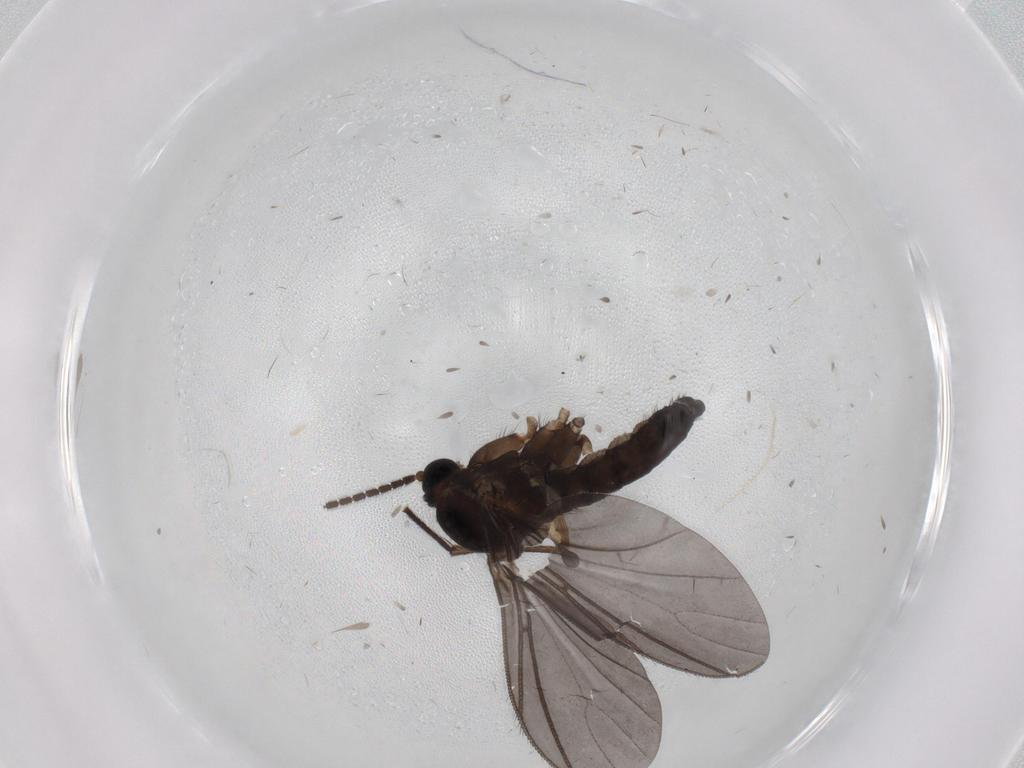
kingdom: Animalia
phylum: Arthropoda
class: Insecta
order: Diptera
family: Sciaridae
